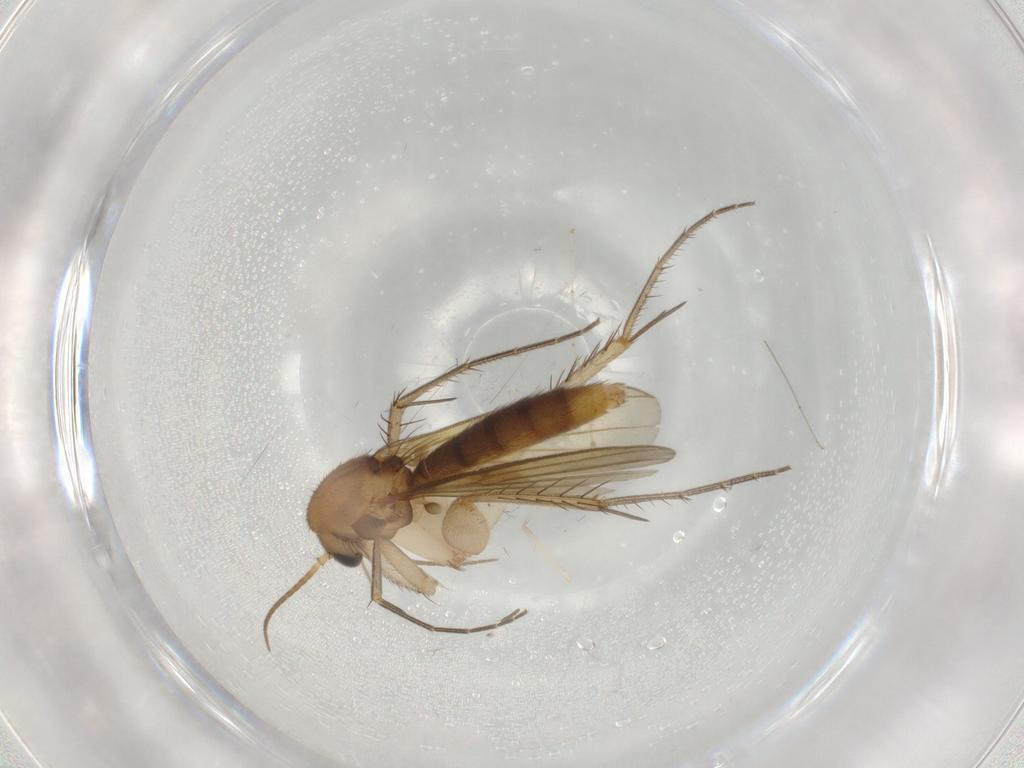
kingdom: Animalia
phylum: Arthropoda
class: Insecta
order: Diptera
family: Mycetophilidae
